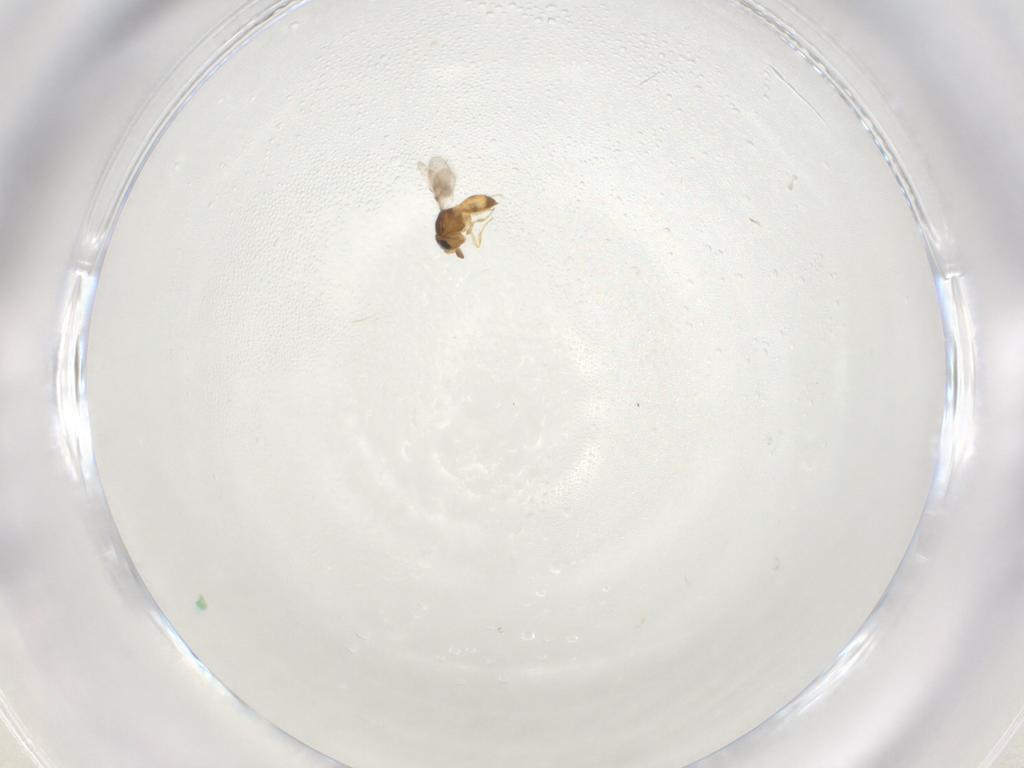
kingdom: Animalia
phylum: Arthropoda
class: Insecta
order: Hymenoptera
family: Scelionidae
